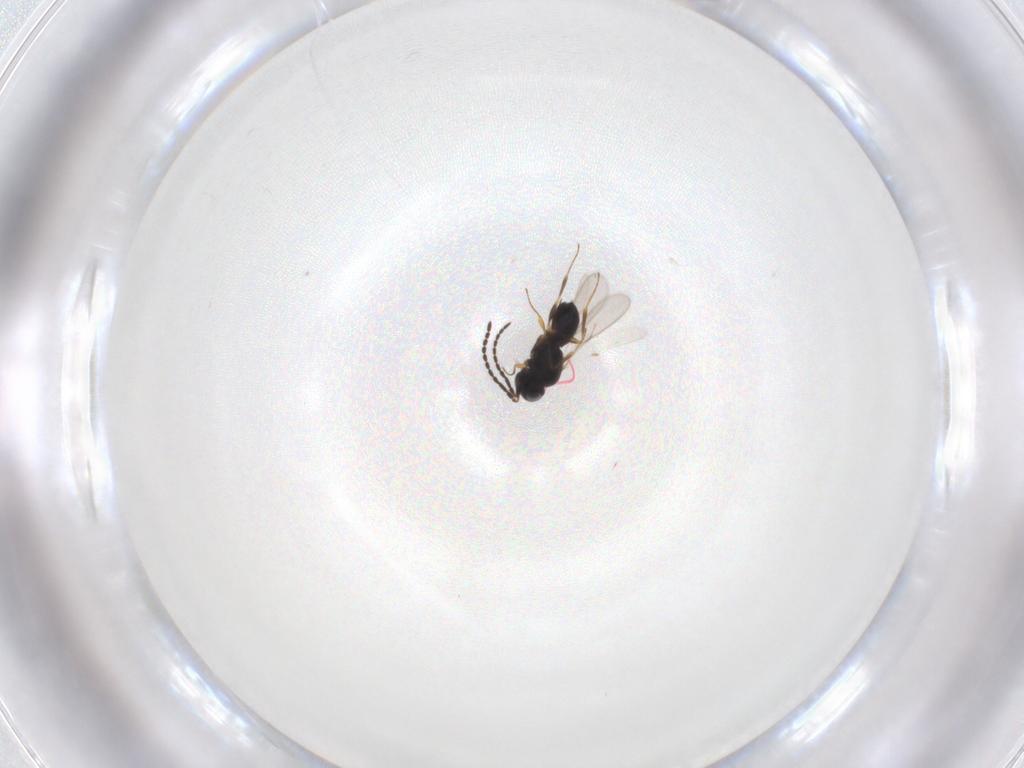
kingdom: Animalia
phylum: Arthropoda
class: Insecta
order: Hymenoptera
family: Scelionidae
